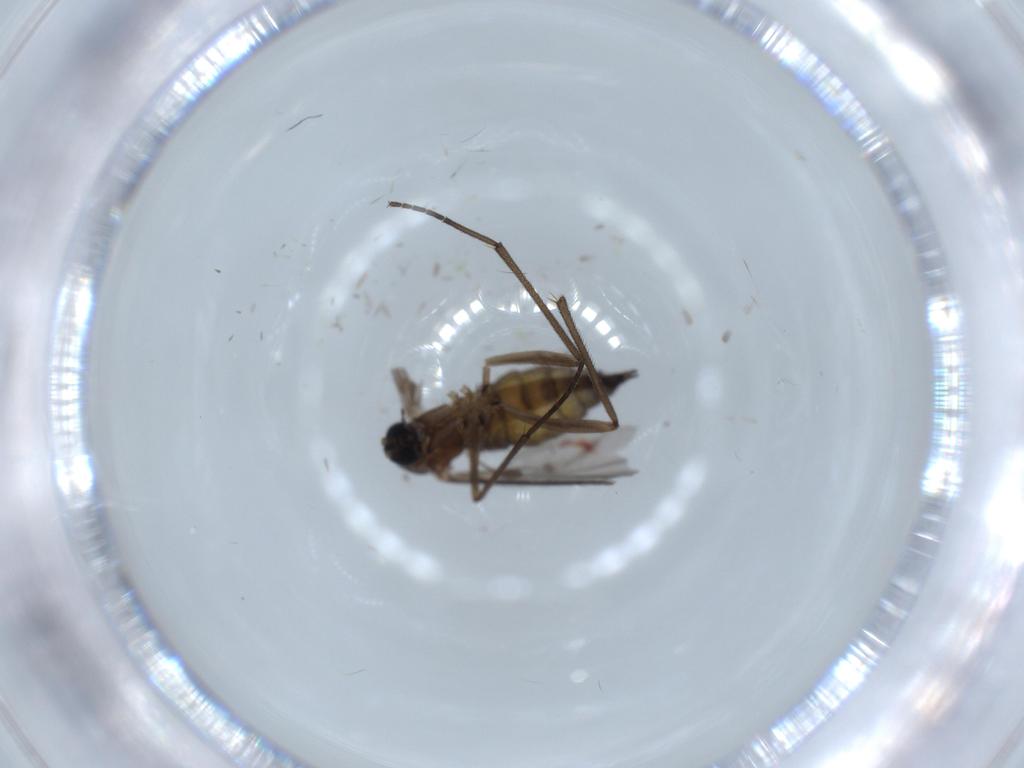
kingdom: Animalia
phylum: Arthropoda
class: Insecta
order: Diptera
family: Sciaridae
